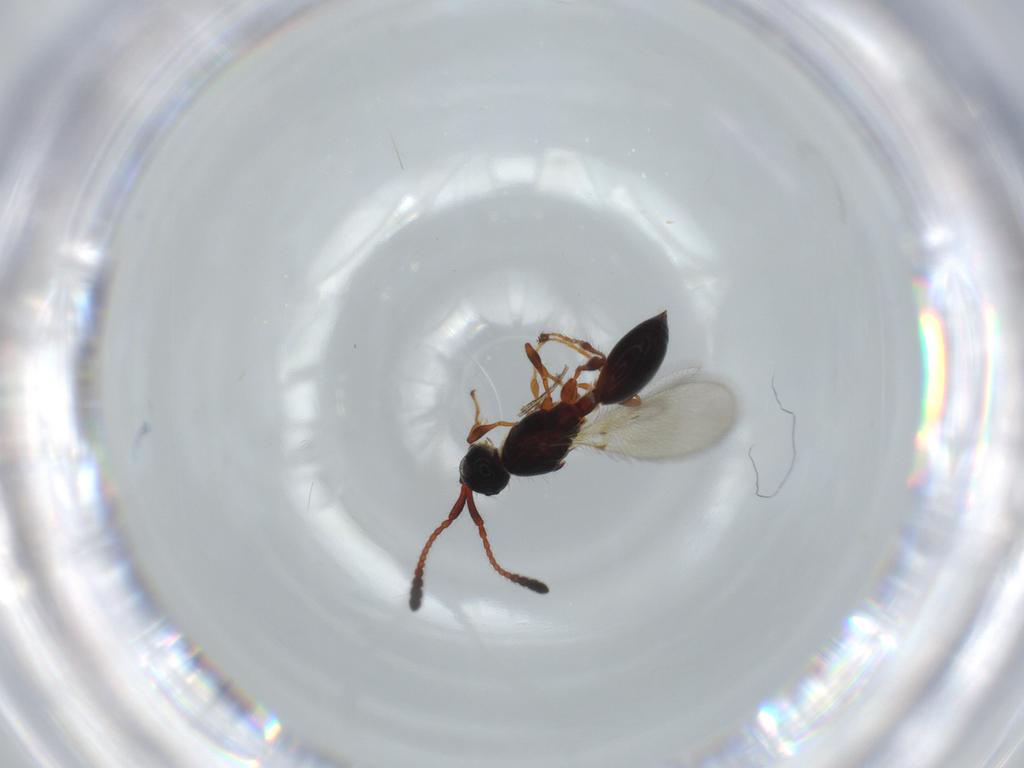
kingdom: Animalia
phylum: Arthropoda
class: Insecta
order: Hymenoptera
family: Diapriidae
